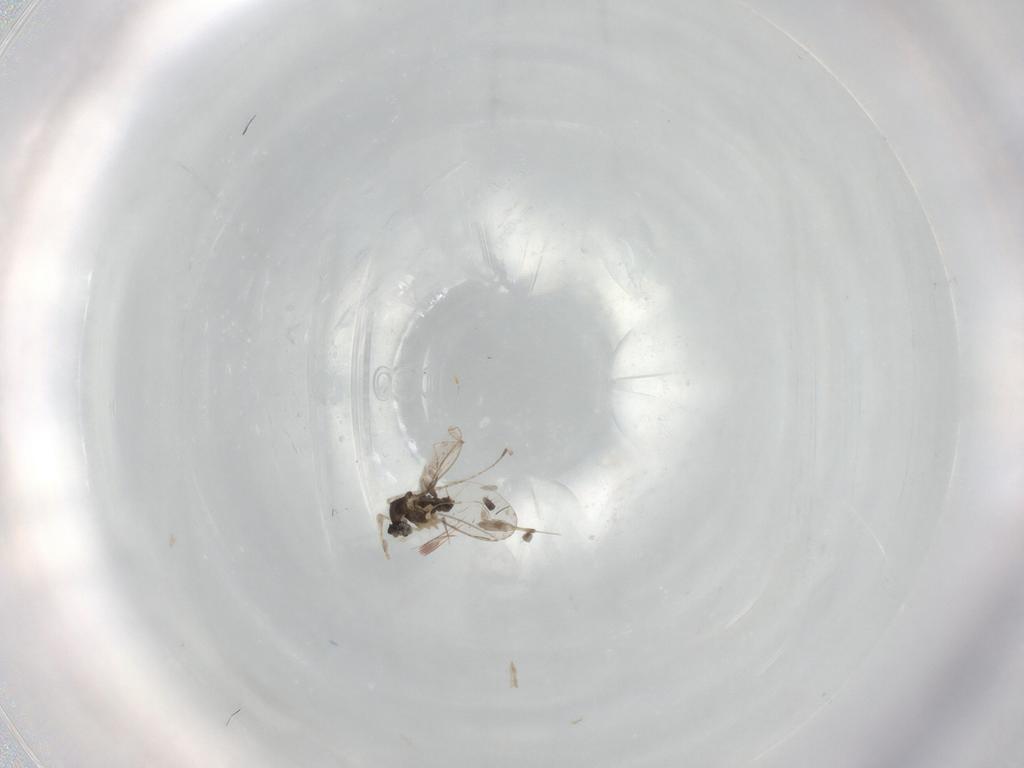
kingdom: Animalia
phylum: Arthropoda
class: Insecta
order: Diptera
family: Cecidomyiidae
